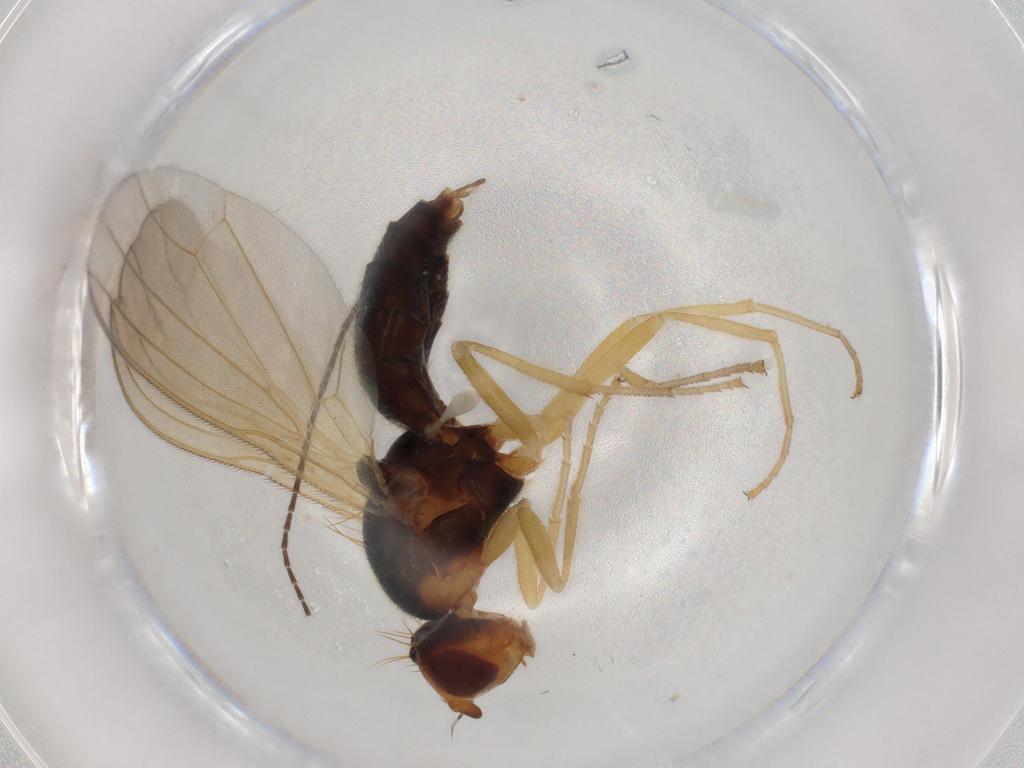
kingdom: Animalia
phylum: Arthropoda
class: Insecta
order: Diptera
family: Hybotidae
